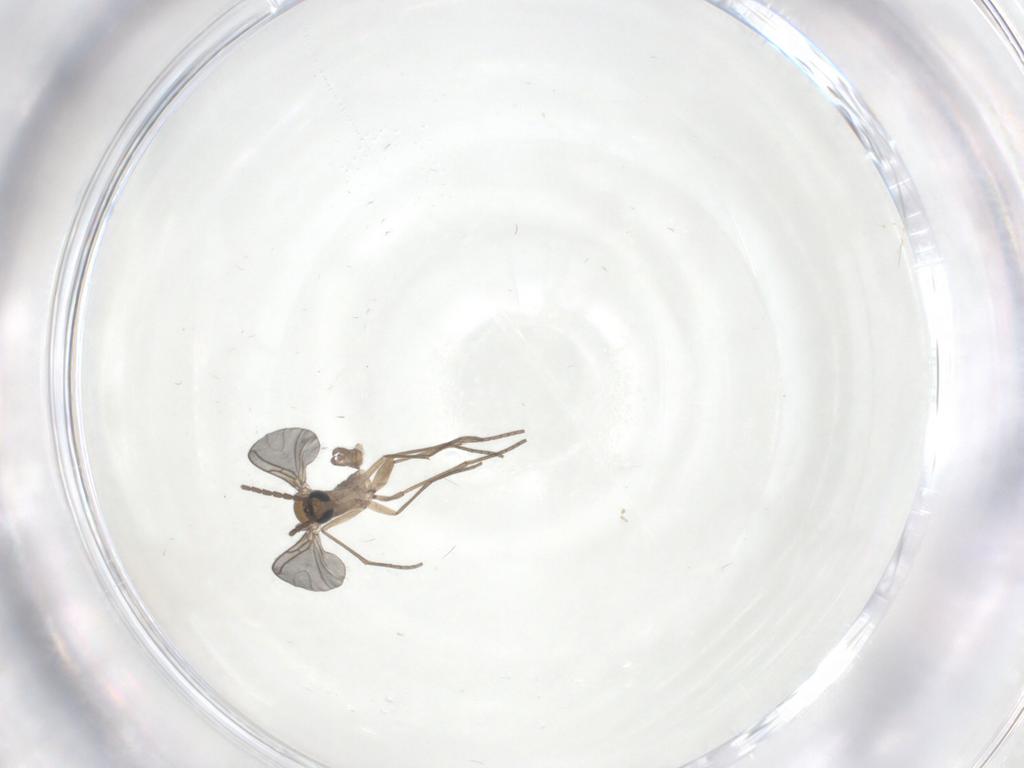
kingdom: Animalia
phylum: Arthropoda
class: Insecta
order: Diptera
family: Sciaridae
